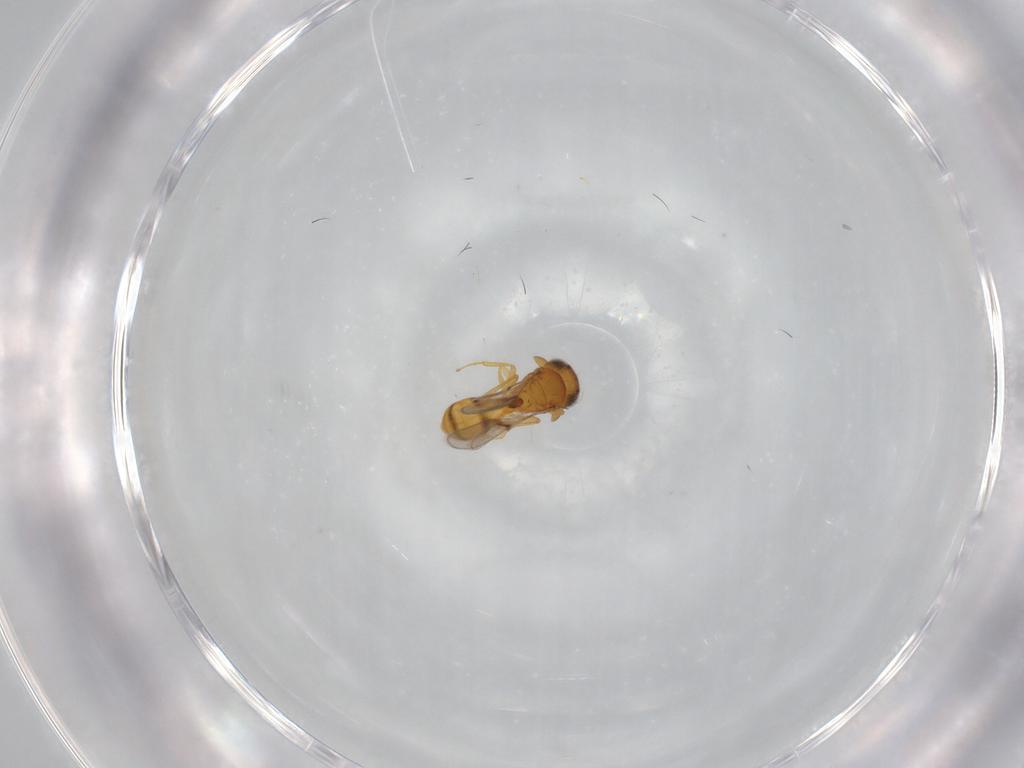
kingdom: Animalia
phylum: Arthropoda
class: Insecta
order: Hymenoptera
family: Scelionidae
